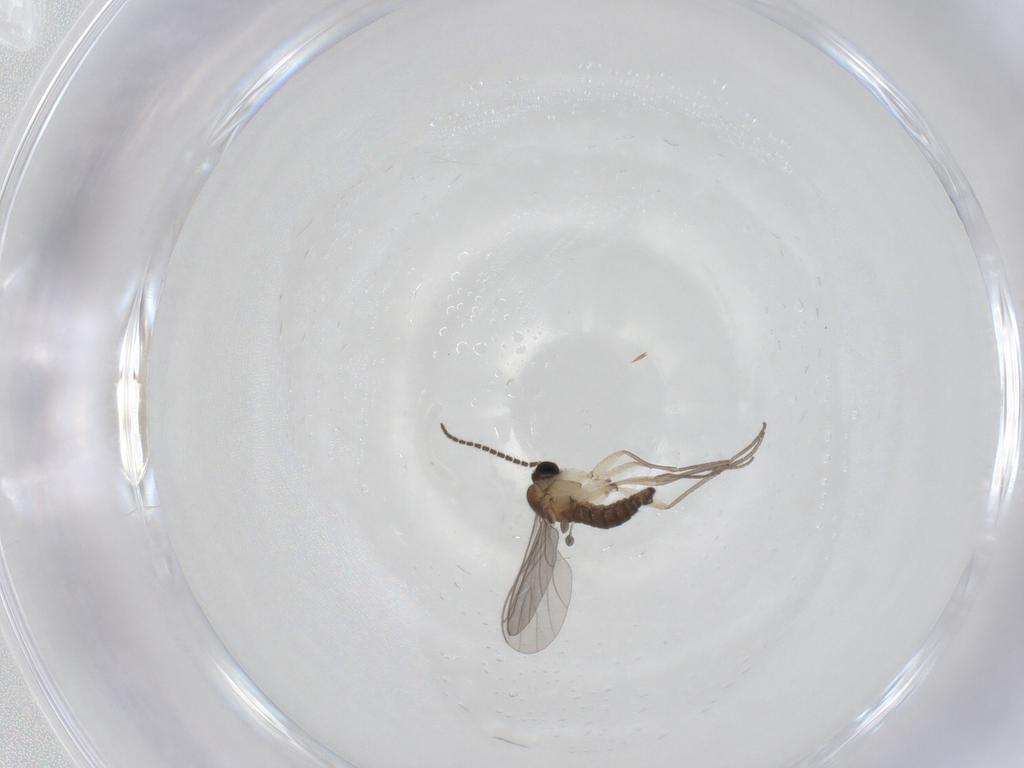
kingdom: Animalia
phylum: Arthropoda
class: Insecta
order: Diptera
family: Sciaridae
